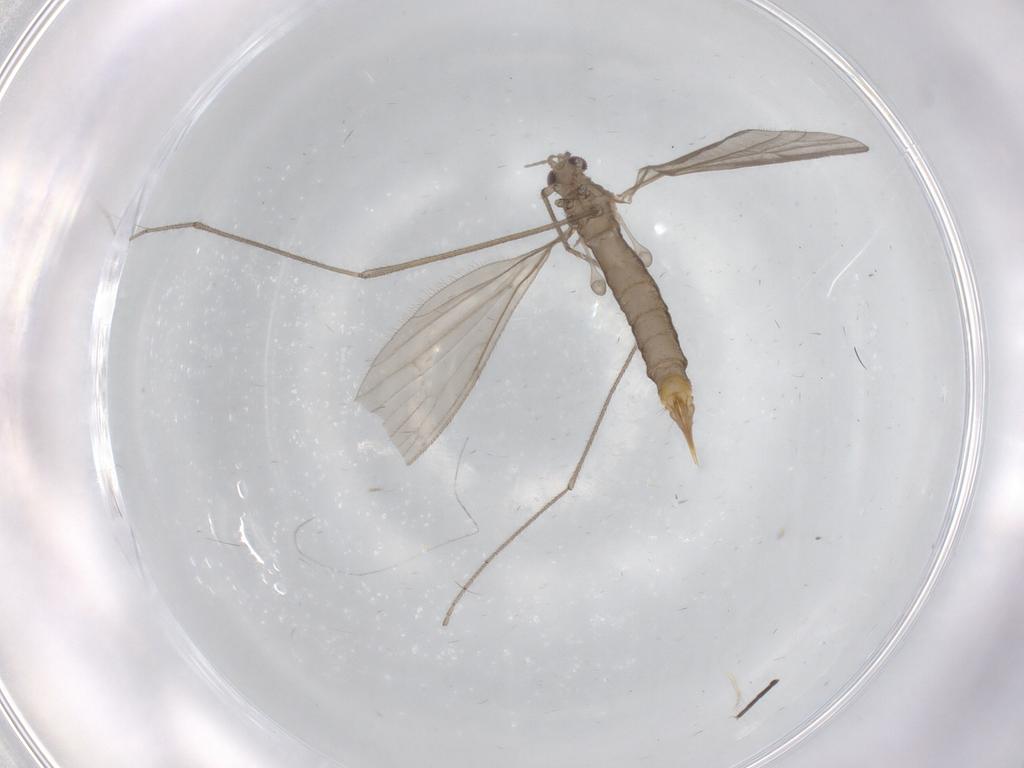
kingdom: Animalia
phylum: Arthropoda
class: Insecta
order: Diptera
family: Limoniidae
